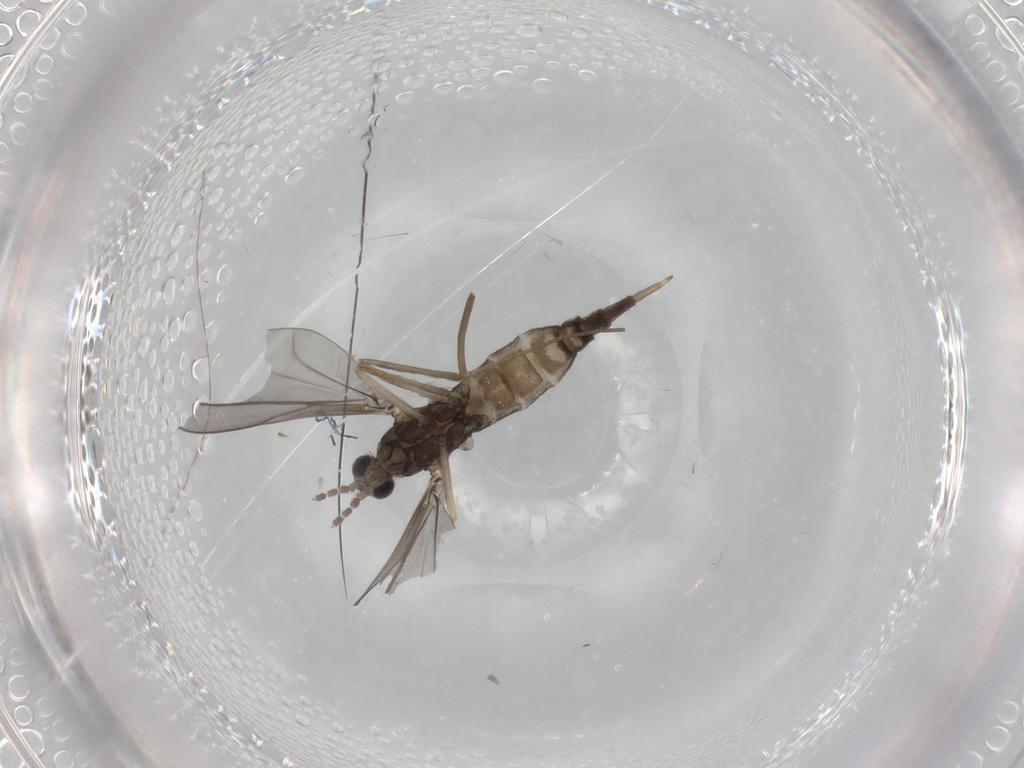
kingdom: Animalia
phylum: Arthropoda
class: Insecta
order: Diptera
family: Cecidomyiidae
